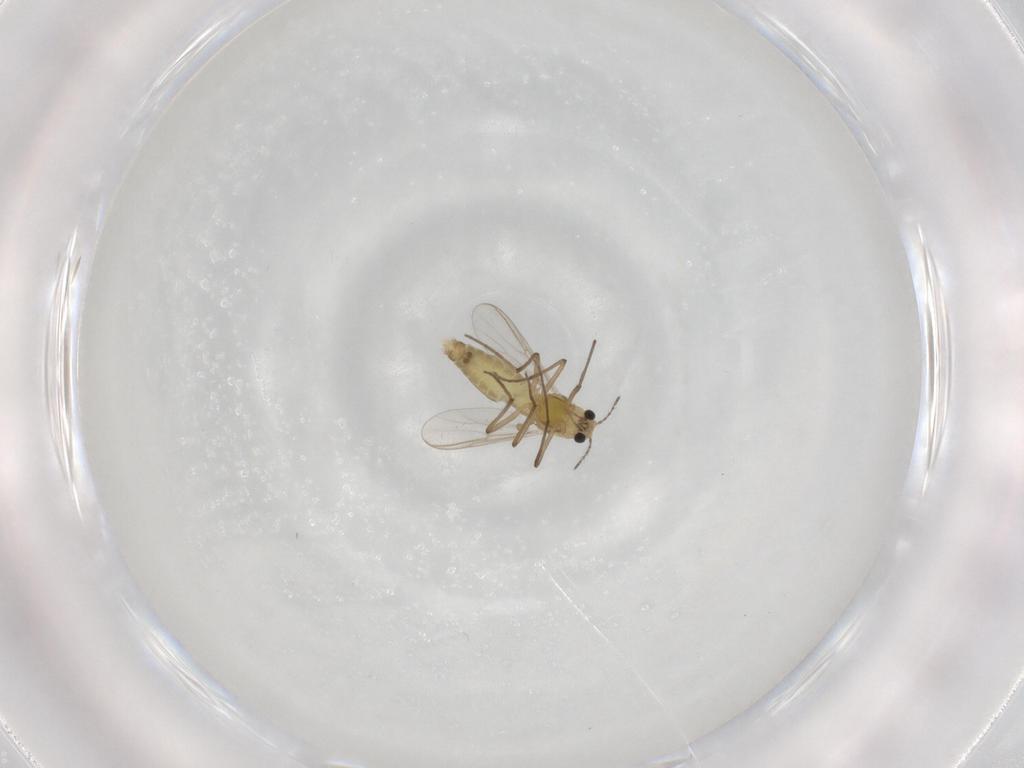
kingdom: Animalia
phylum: Arthropoda
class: Insecta
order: Diptera
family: Chironomidae
